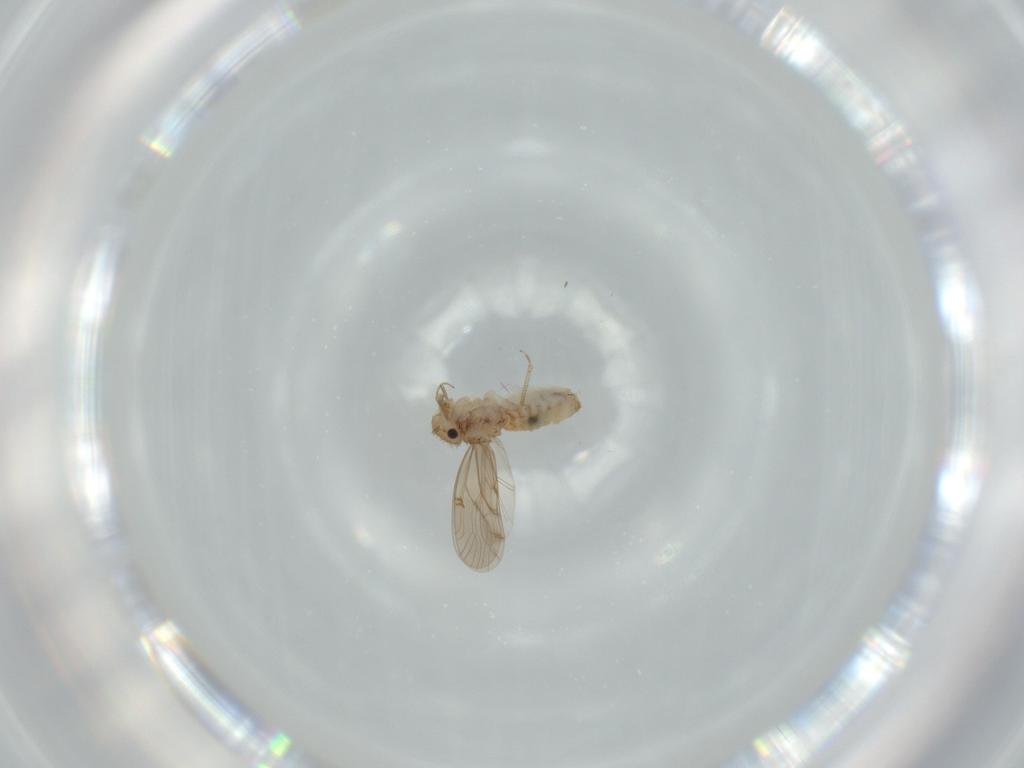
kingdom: Animalia
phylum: Arthropoda
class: Insecta
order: Psocodea
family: Ectopsocidae
